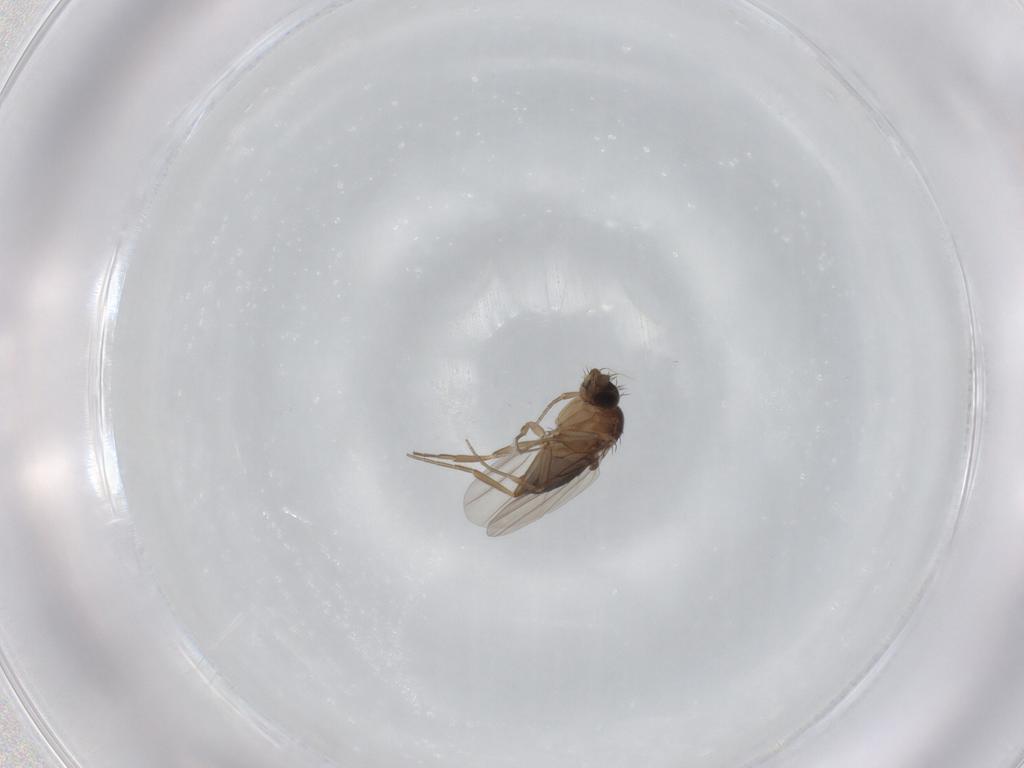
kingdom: Animalia
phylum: Arthropoda
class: Insecta
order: Diptera
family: Phoridae
